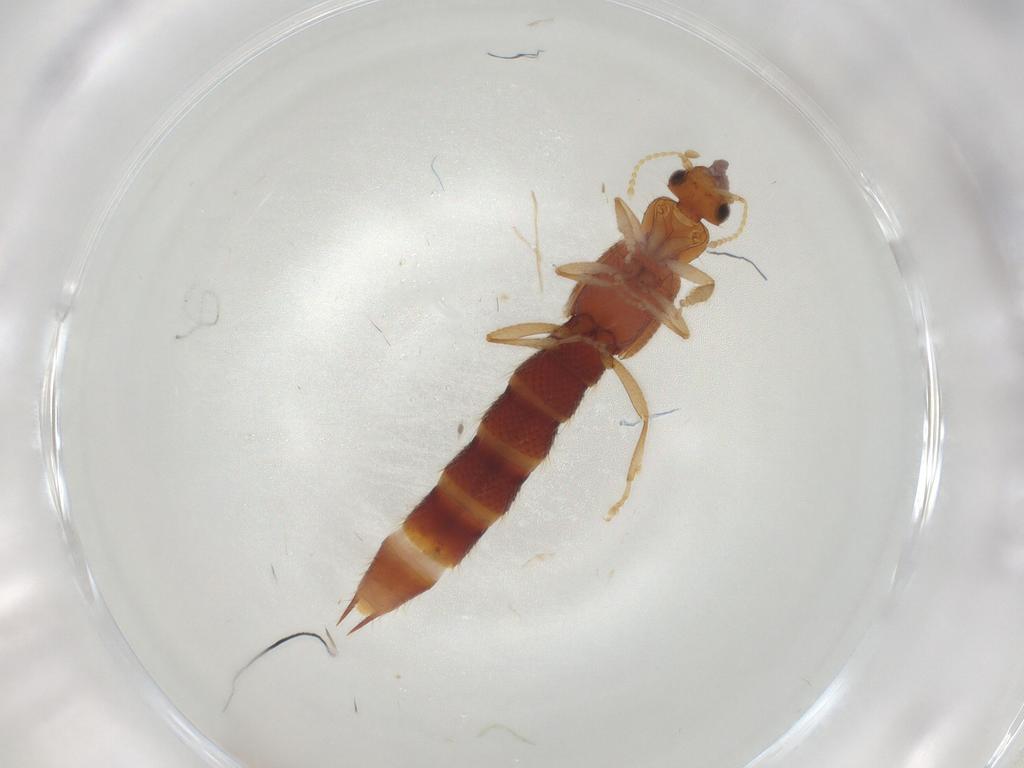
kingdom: Animalia
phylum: Arthropoda
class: Insecta
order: Coleoptera
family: Staphylinidae
